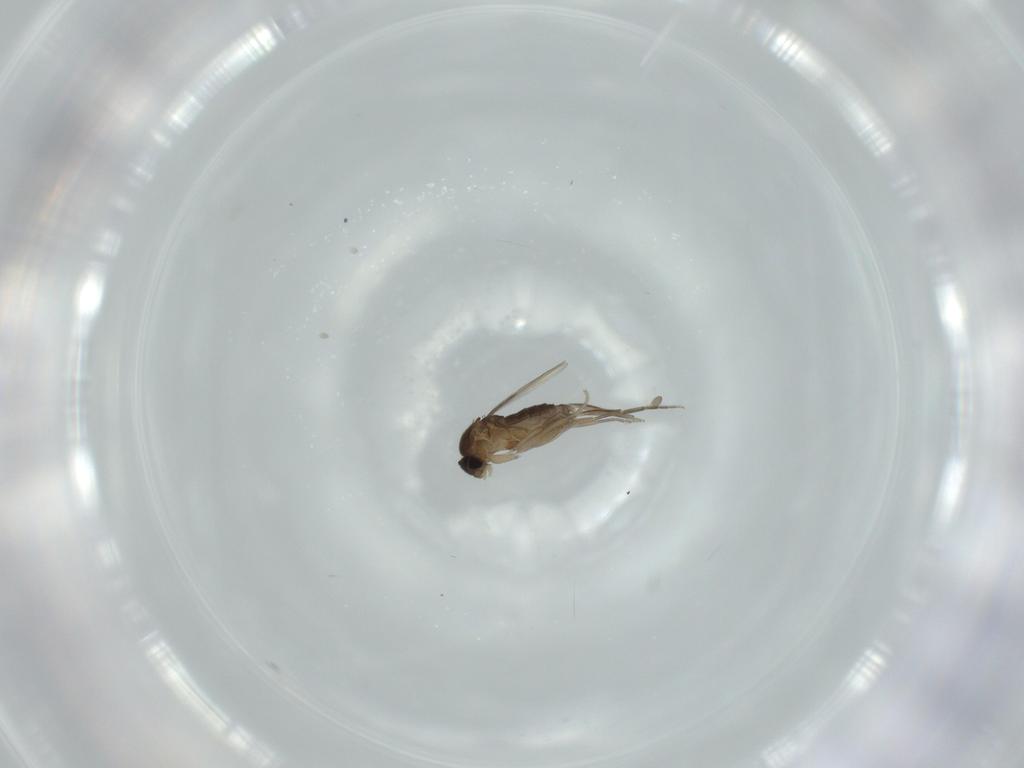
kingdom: Animalia
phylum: Arthropoda
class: Insecta
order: Diptera
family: Phoridae
